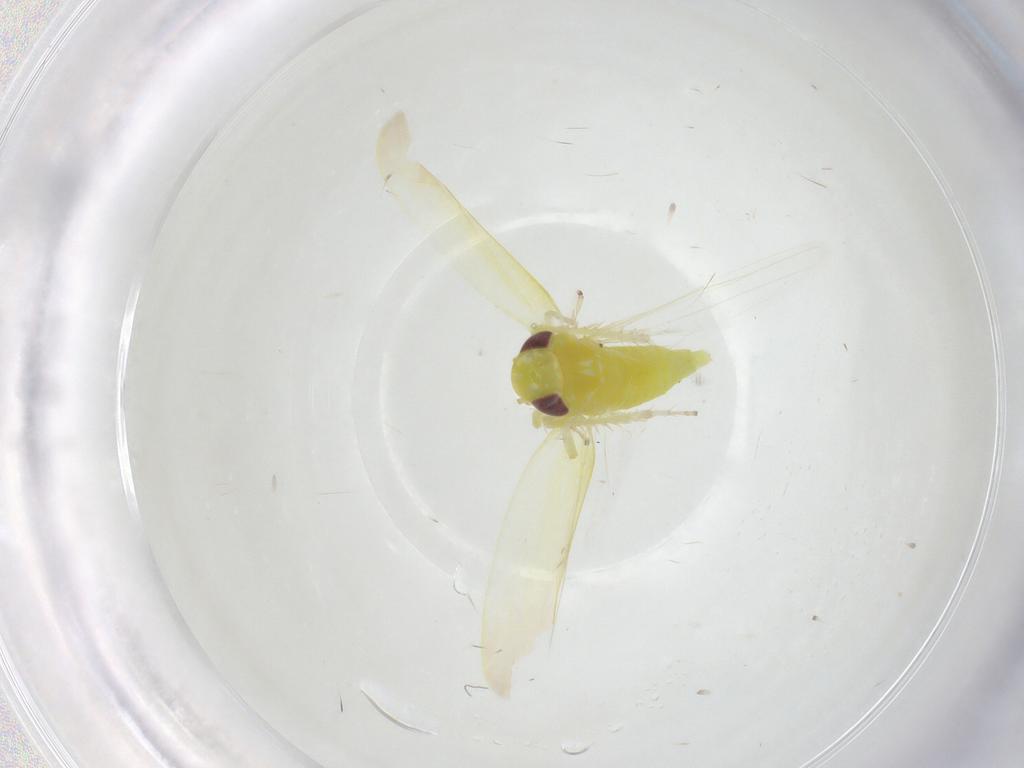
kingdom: Animalia
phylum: Arthropoda
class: Insecta
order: Hemiptera
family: Cicadellidae
